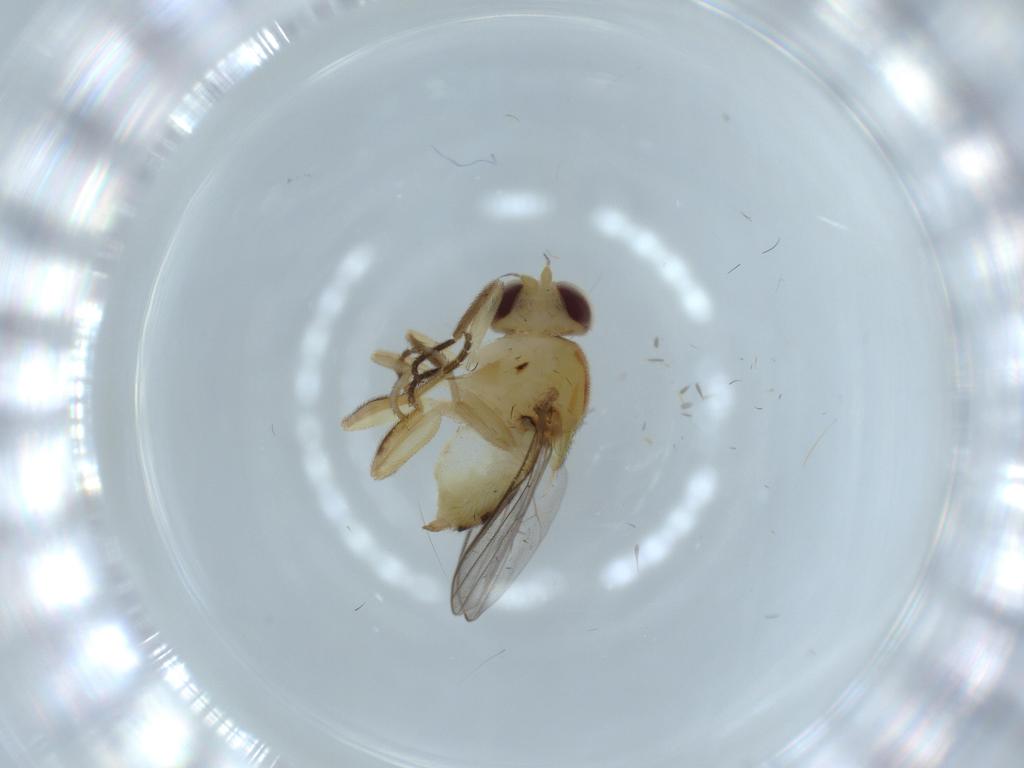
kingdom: Animalia
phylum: Arthropoda
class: Insecta
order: Diptera
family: Chloropidae
